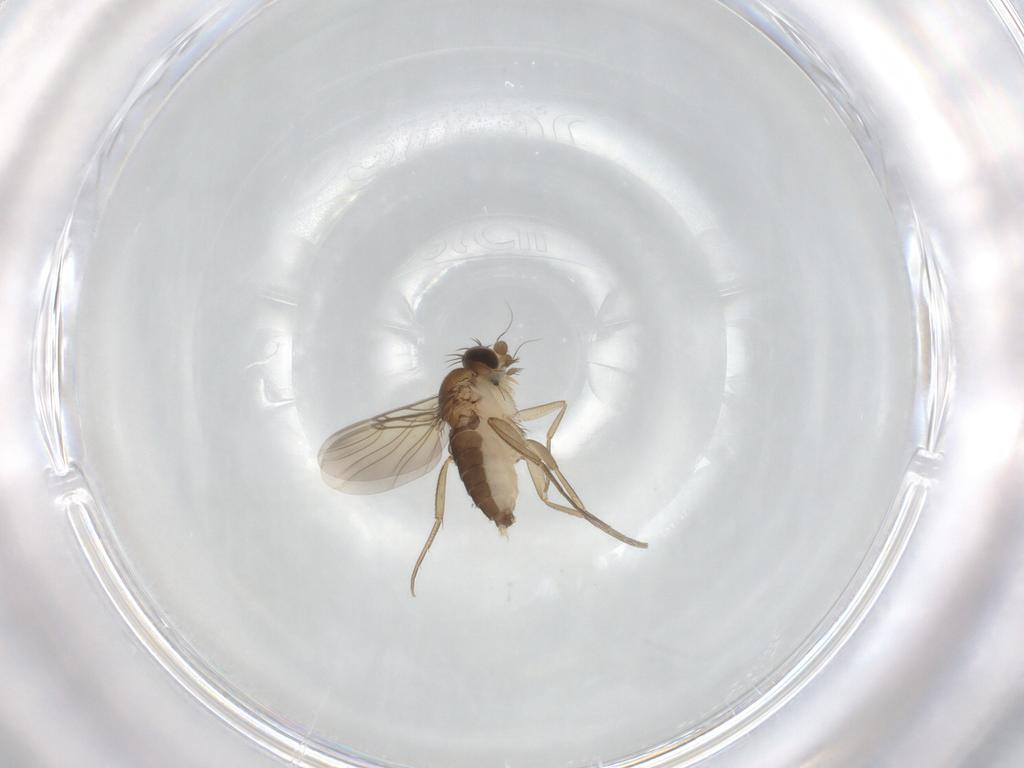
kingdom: Animalia
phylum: Arthropoda
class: Insecta
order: Diptera
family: Phoridae
